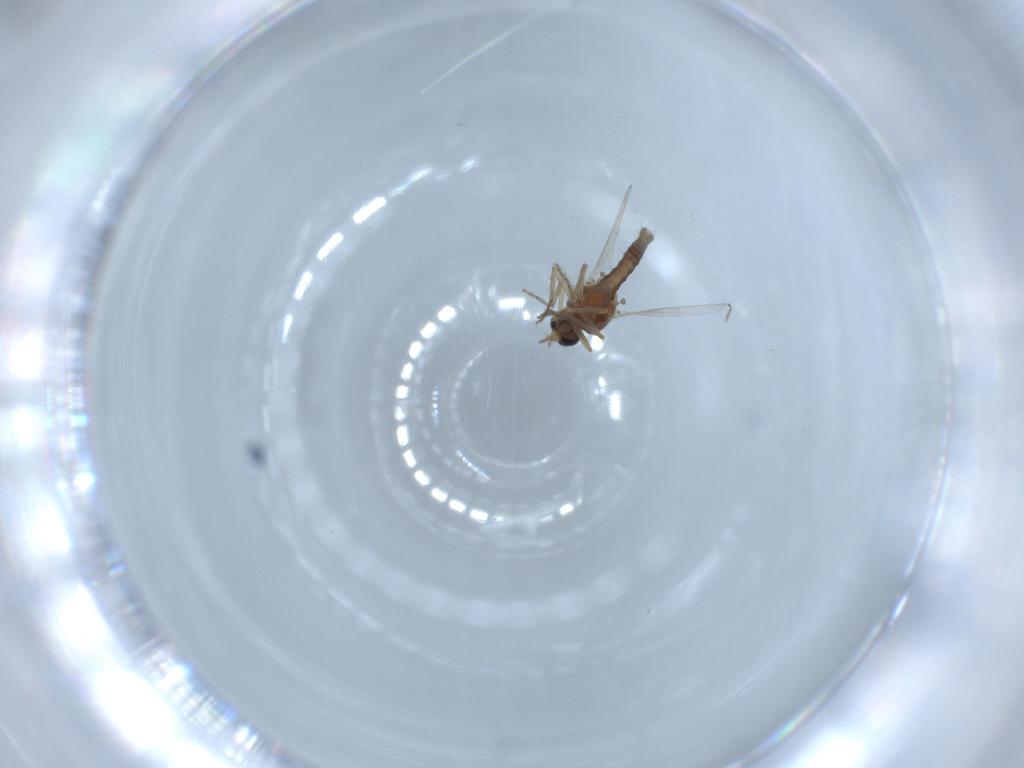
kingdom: Animalia
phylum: Arthropoda
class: Insecta
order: Diptera
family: Ceratopogonidae
